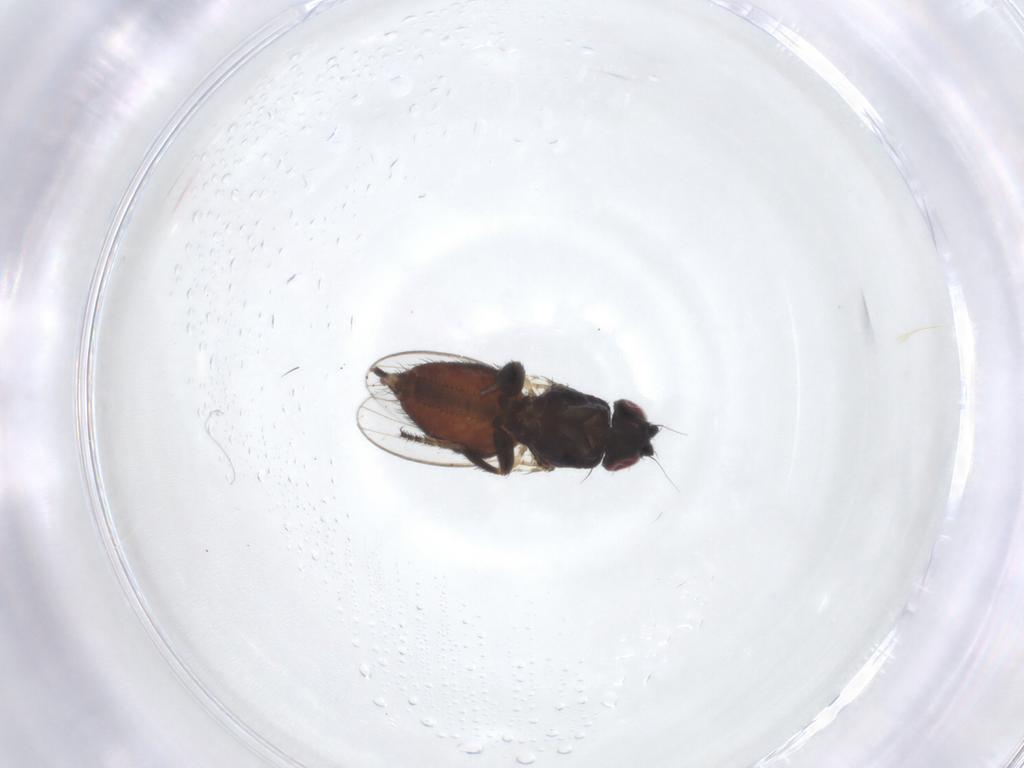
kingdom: Animalia
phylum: Arthropoda
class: Insecta
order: Diptera
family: Milichiidae
